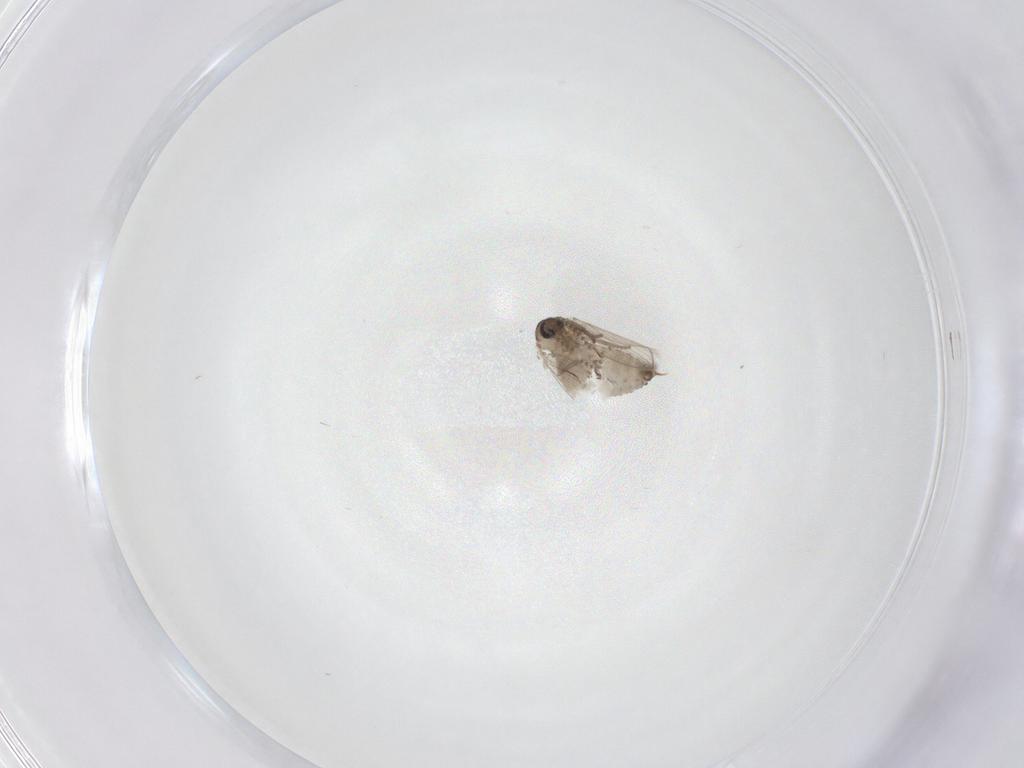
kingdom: Animalia
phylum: Arthropoda
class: Insecta
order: Diptera
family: Psychodidae
